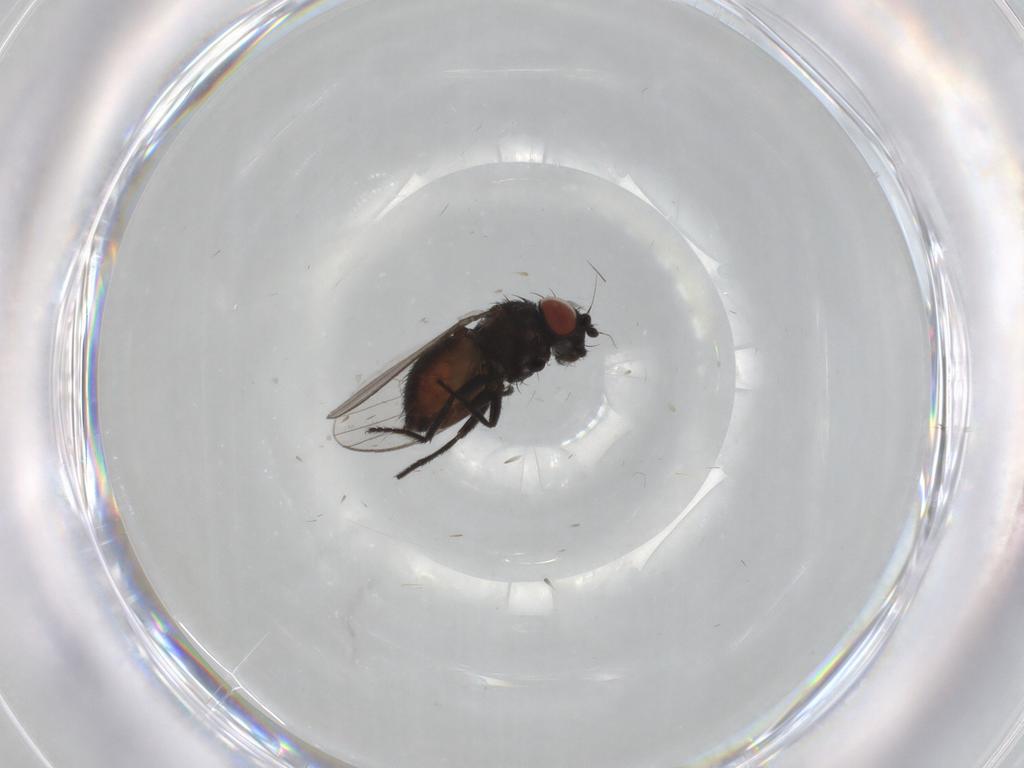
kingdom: Animalia
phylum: Arthropoda
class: Insecta
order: Diptera
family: Milichiidae
